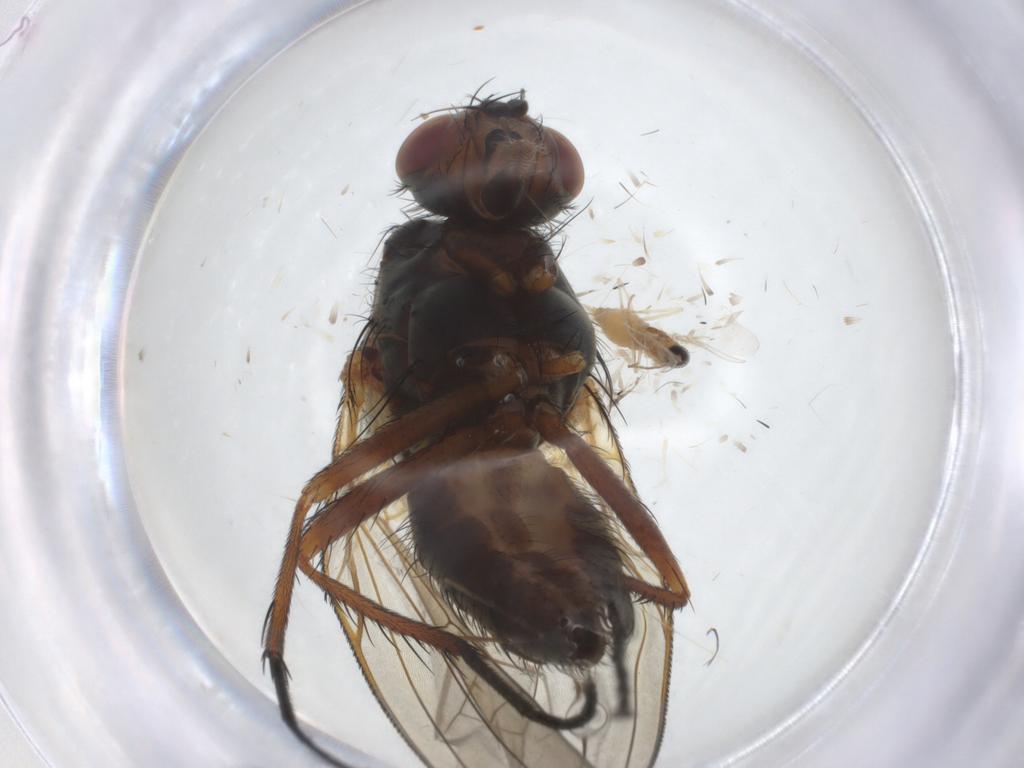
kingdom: Animalia
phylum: Arthropoda
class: Insecta
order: Diptera
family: Anthomyiidae
